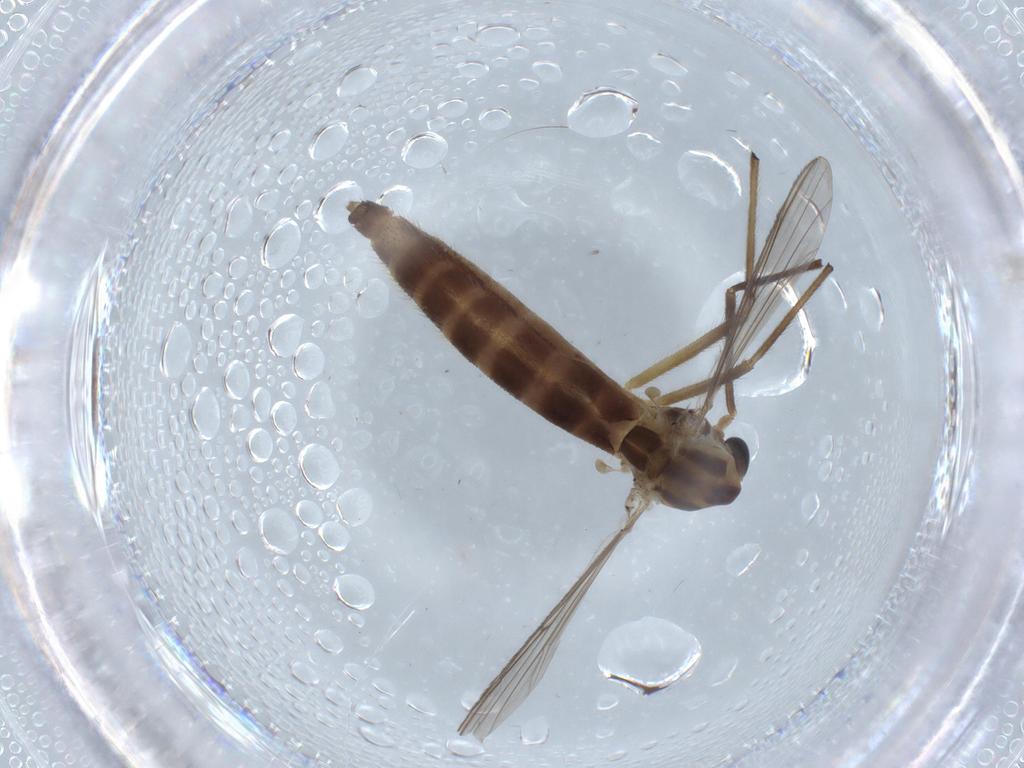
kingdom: Animalia
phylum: Arthropoda
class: Insecta
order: Diptera
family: Chironomidae
